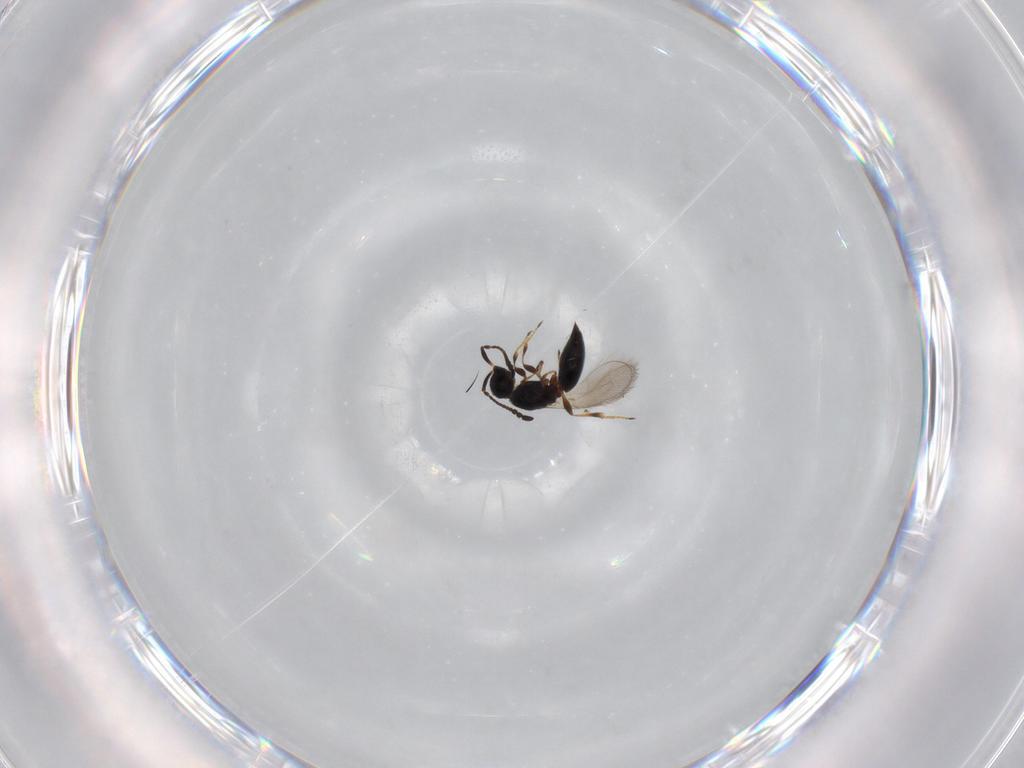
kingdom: Animalia
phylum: Arthropoda
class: Insecta
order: Hymenoptera
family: Diapriidae
